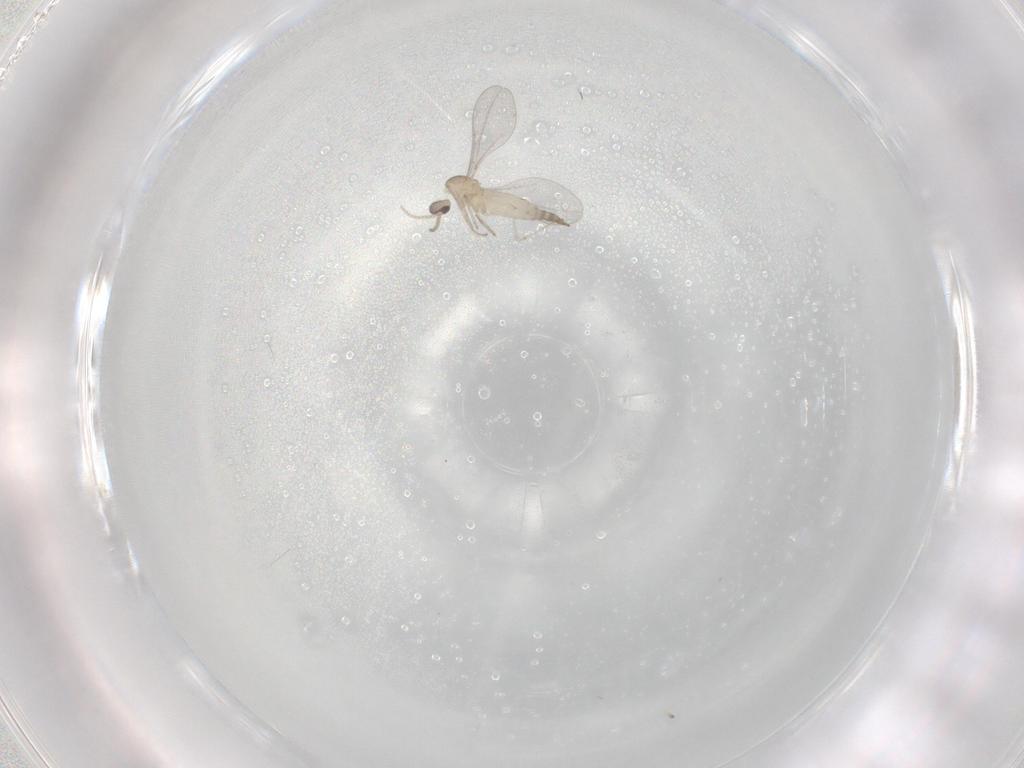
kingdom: Animalia
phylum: Arthropoda
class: Insecta
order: Diptera
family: Cecidomyiidae
